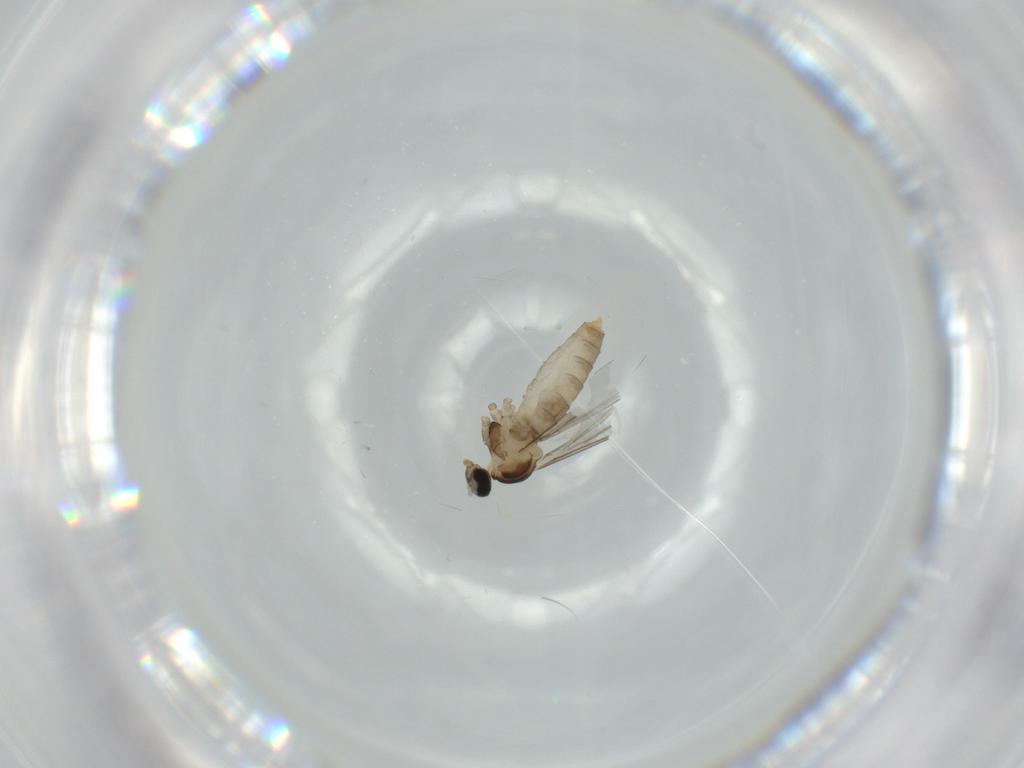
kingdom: Animalia
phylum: Arthropoda
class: Insecta
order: Diptera
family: Cecidomyiidae
